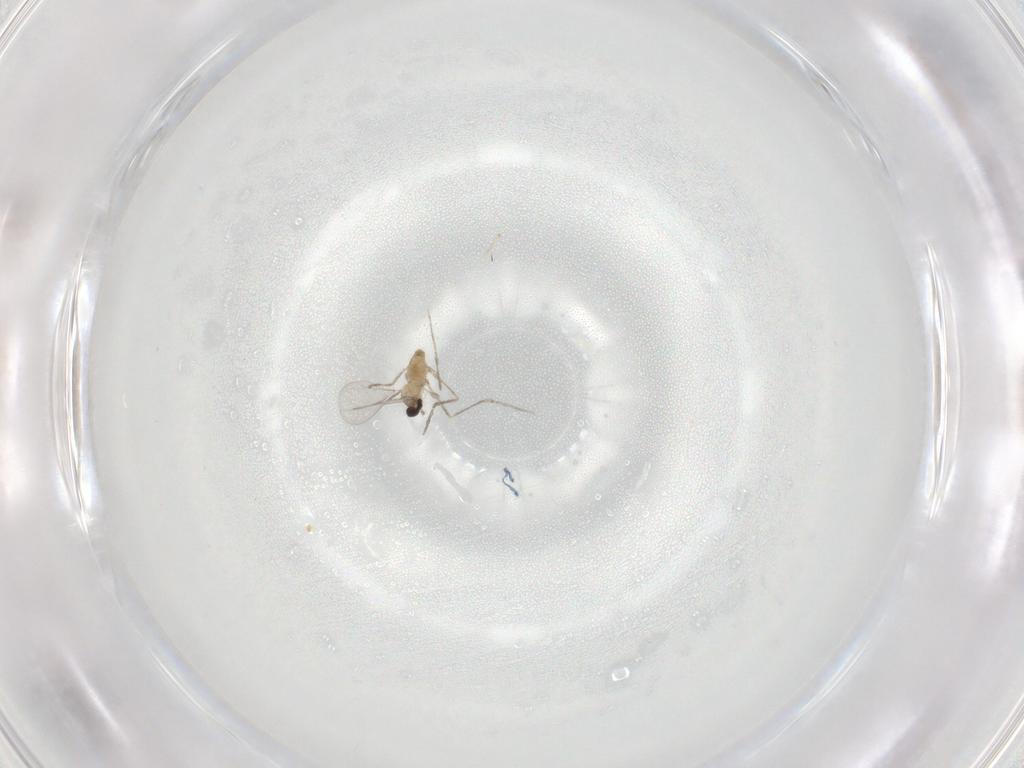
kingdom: Animalia
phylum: Arthropoda
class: Insecta
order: Diptera
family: Cecidomyiidae
